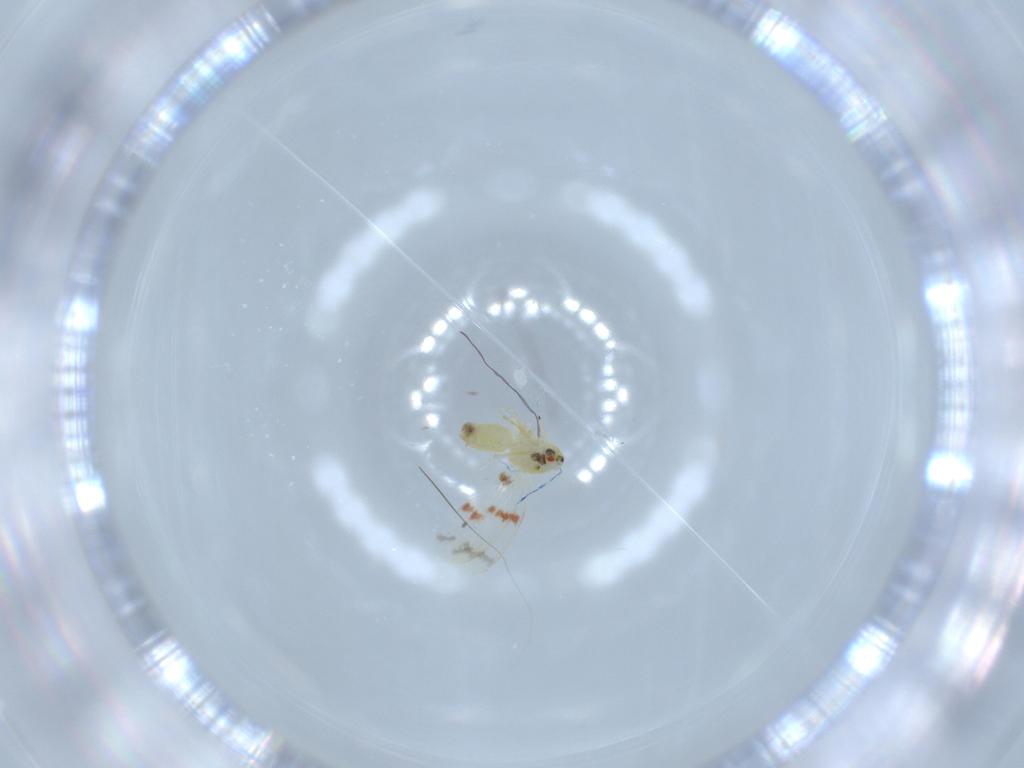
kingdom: Animalia
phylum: Arthropoda
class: Insecta
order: Hemiptera
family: Aleyrodidae
